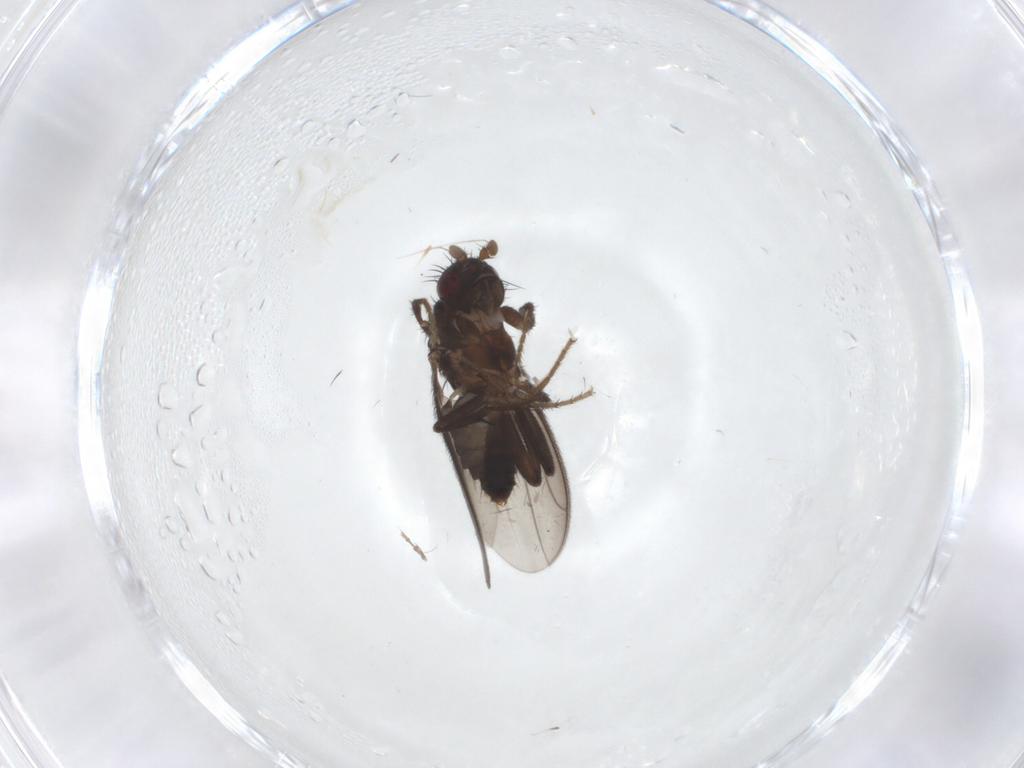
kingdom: Animalia
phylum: Arthropoda
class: Insecta
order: Diptera
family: Cecidomyiidae
